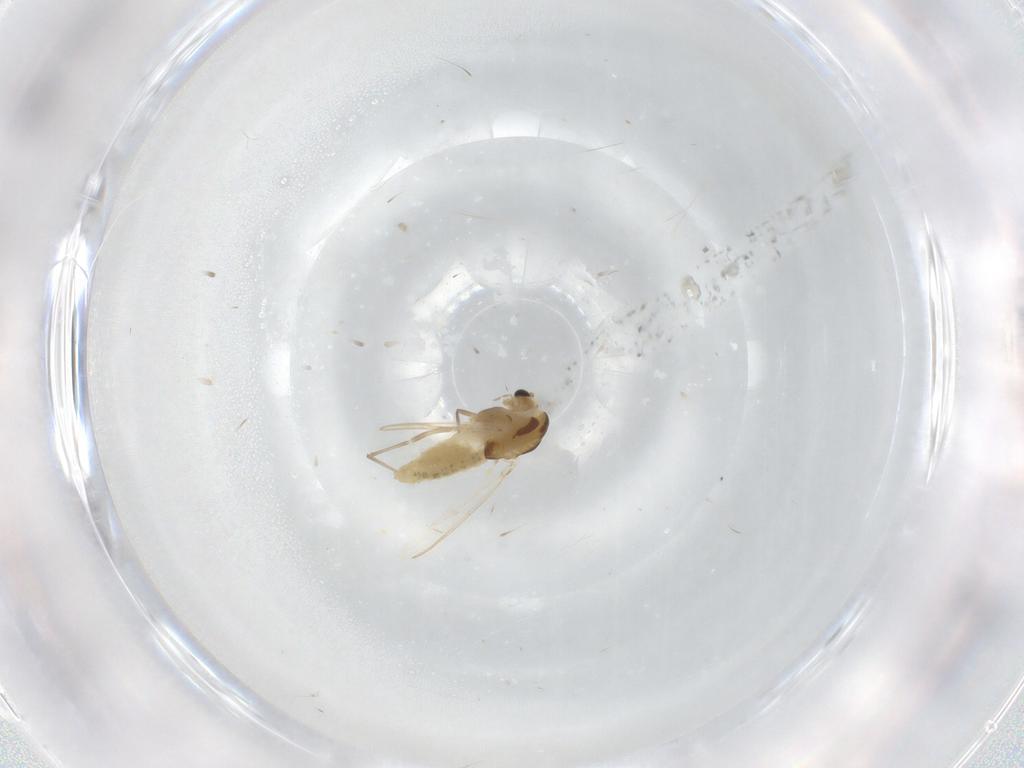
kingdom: Animalia
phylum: Arthropoda
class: Insecta
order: Diptera
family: Chironomidae
